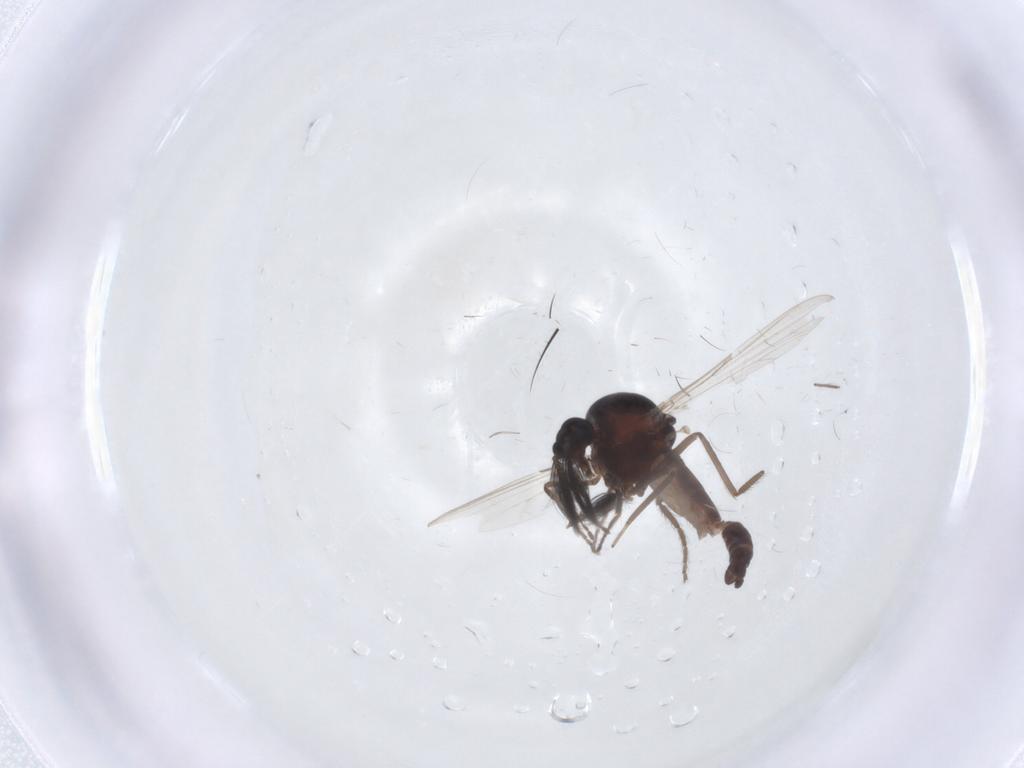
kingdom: Animalia
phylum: Arthropoda
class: Insecta
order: Diptera
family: Ceratopogonidae
